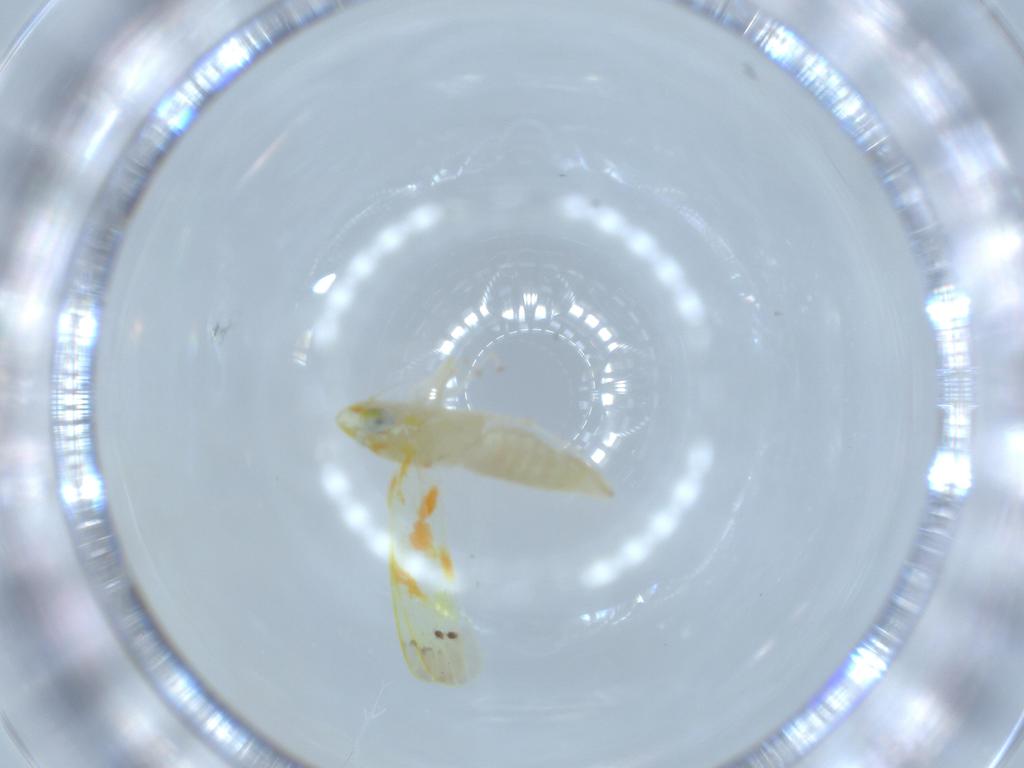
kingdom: Animalia
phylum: Arthropoda
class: Insecta
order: Hemiptera
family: Cicadellidae
